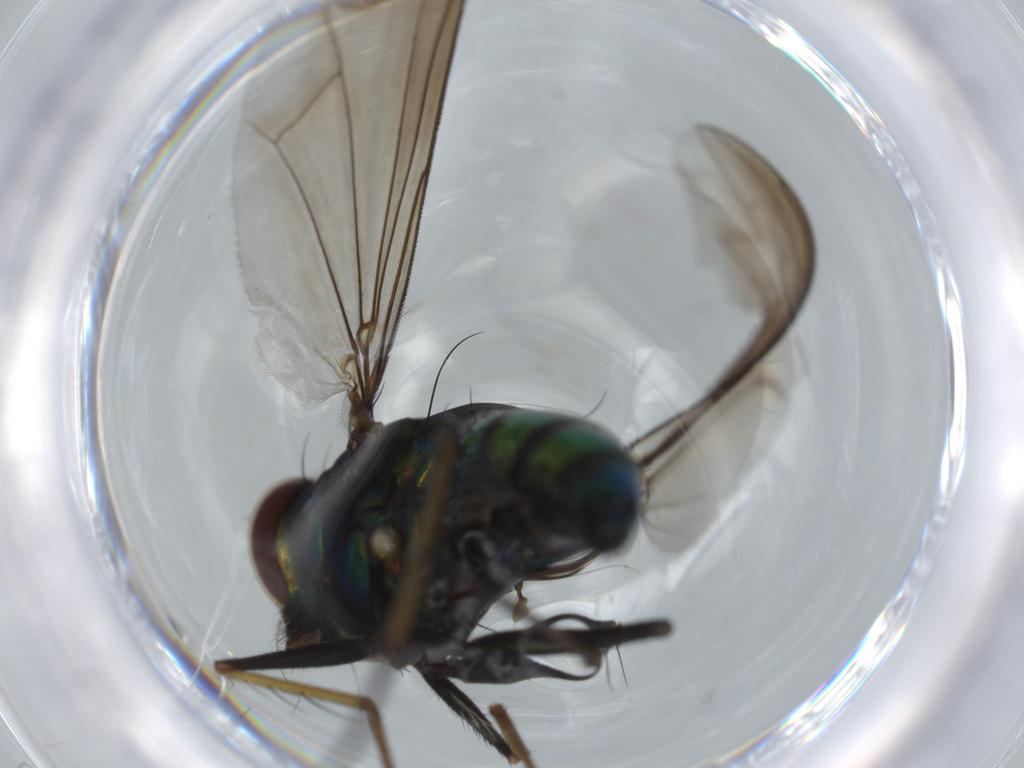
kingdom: Animalia
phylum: Arthropoda
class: Insecta
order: Diptera
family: Dolichopodidae
